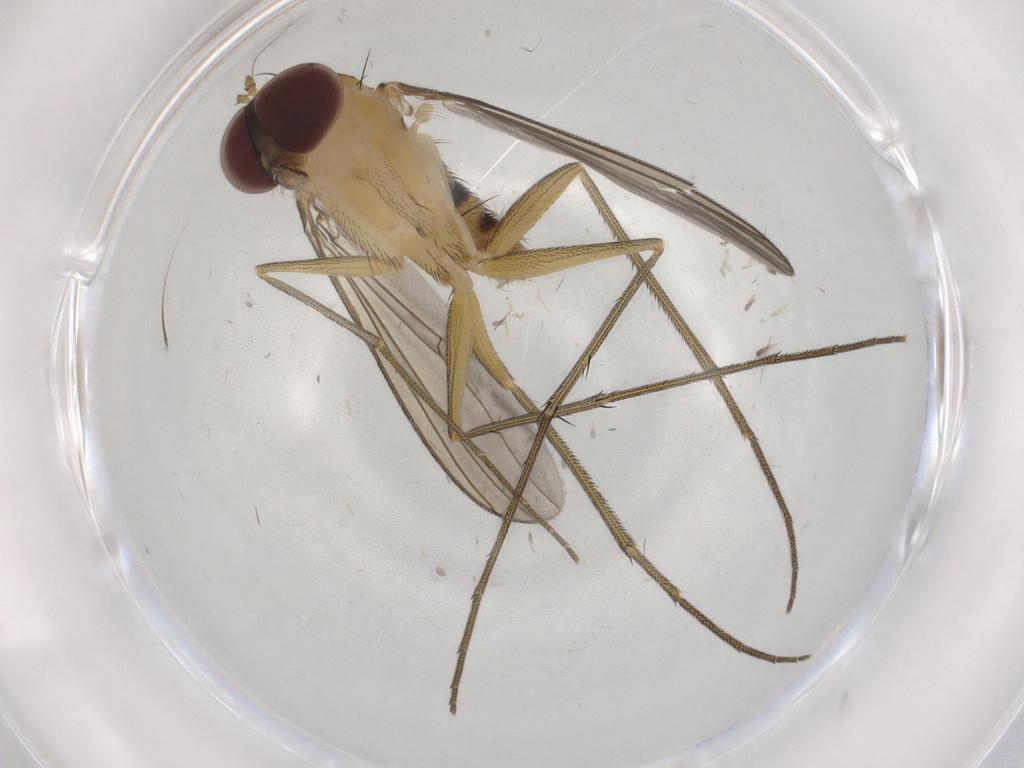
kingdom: Animalia
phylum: Arthropoda
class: Insecta
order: Diptera
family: Dolichopodidae
